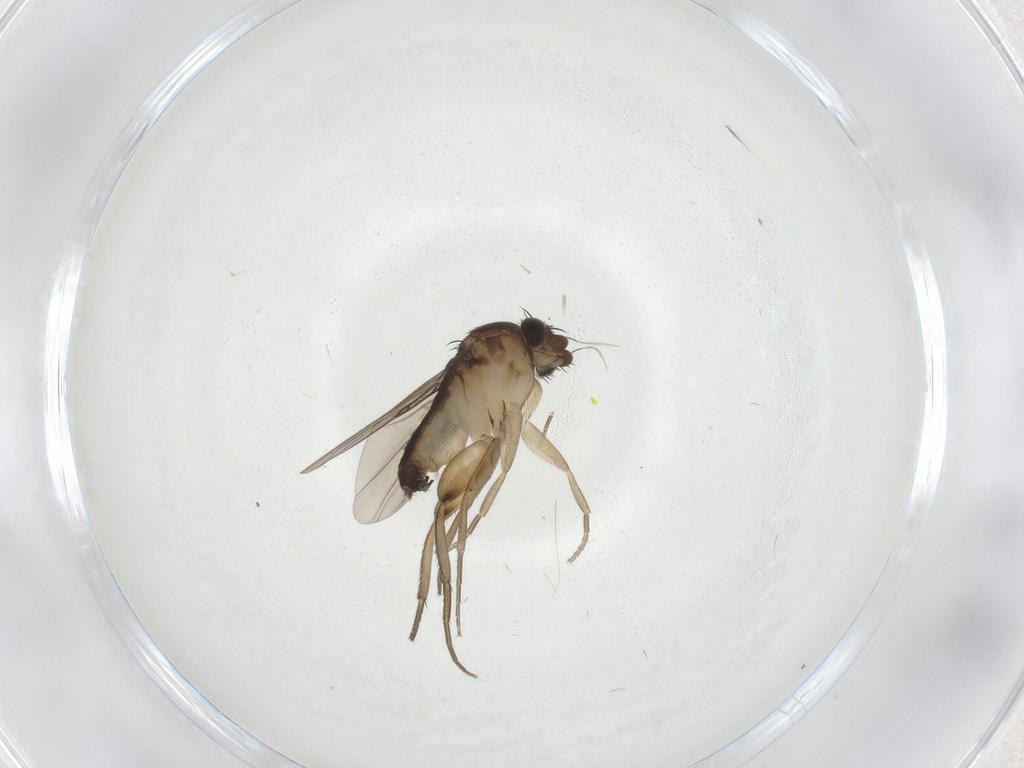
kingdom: Animalia
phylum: Arthropoda
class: Insecta
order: Diptera
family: Phoridae
